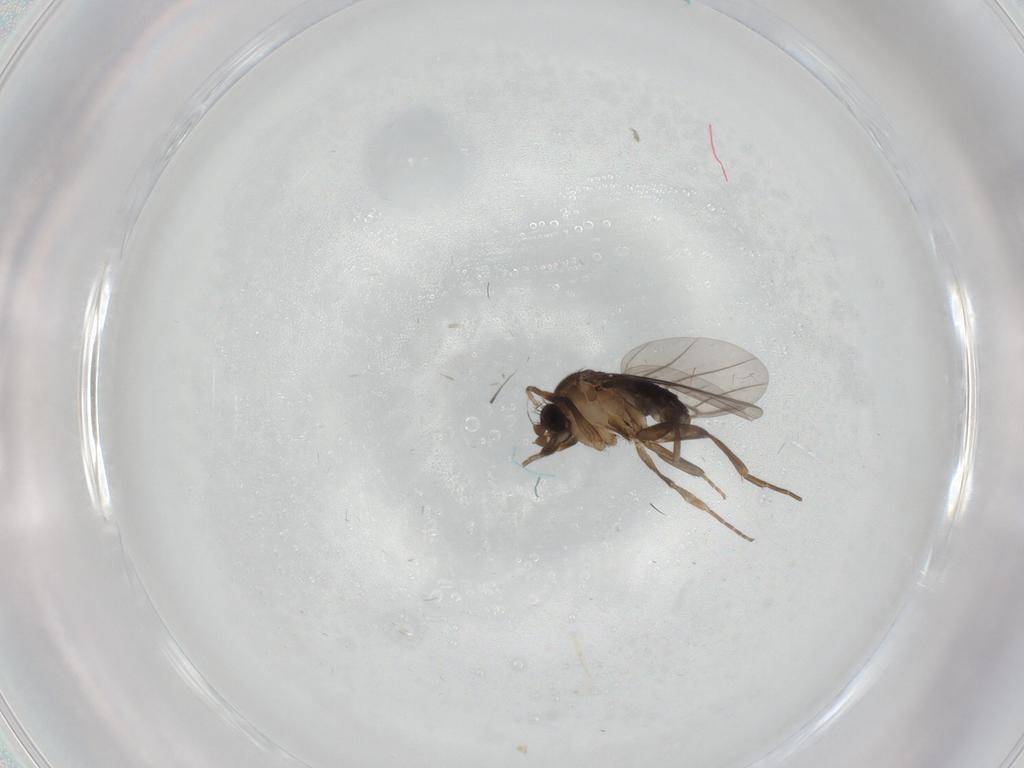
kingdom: Animalia
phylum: Arthropoda
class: Insecta
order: Diptera
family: Phoridae
